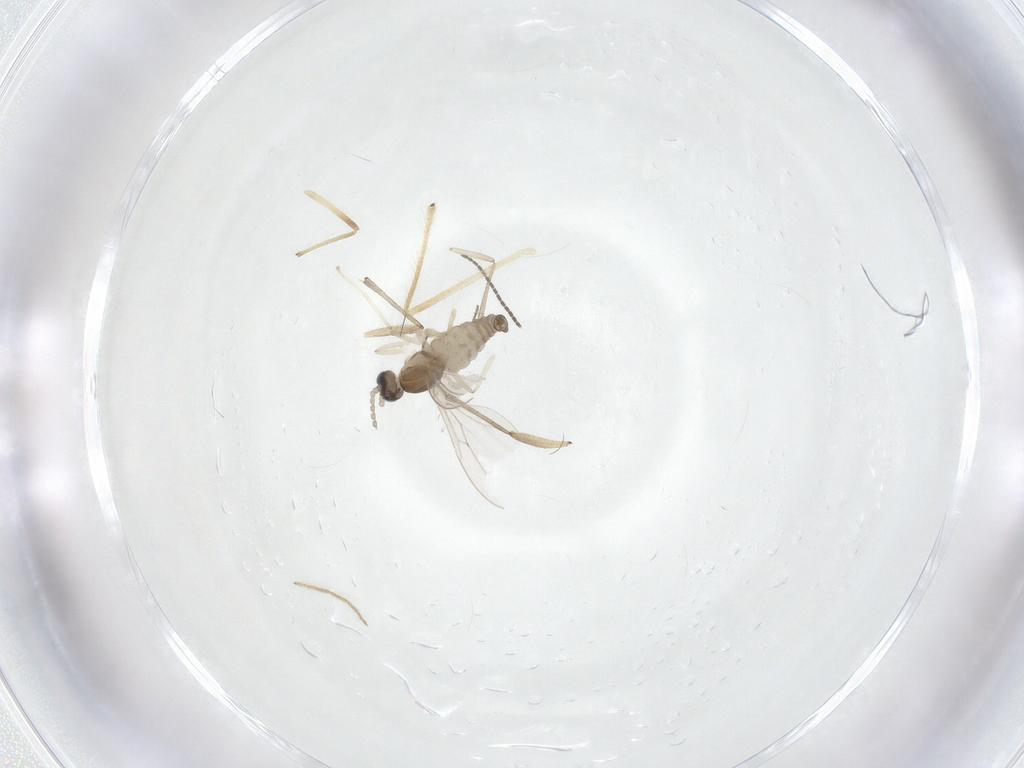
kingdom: Animalia
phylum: Arthropoda
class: Insecta
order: Diptera
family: Sciaridae
